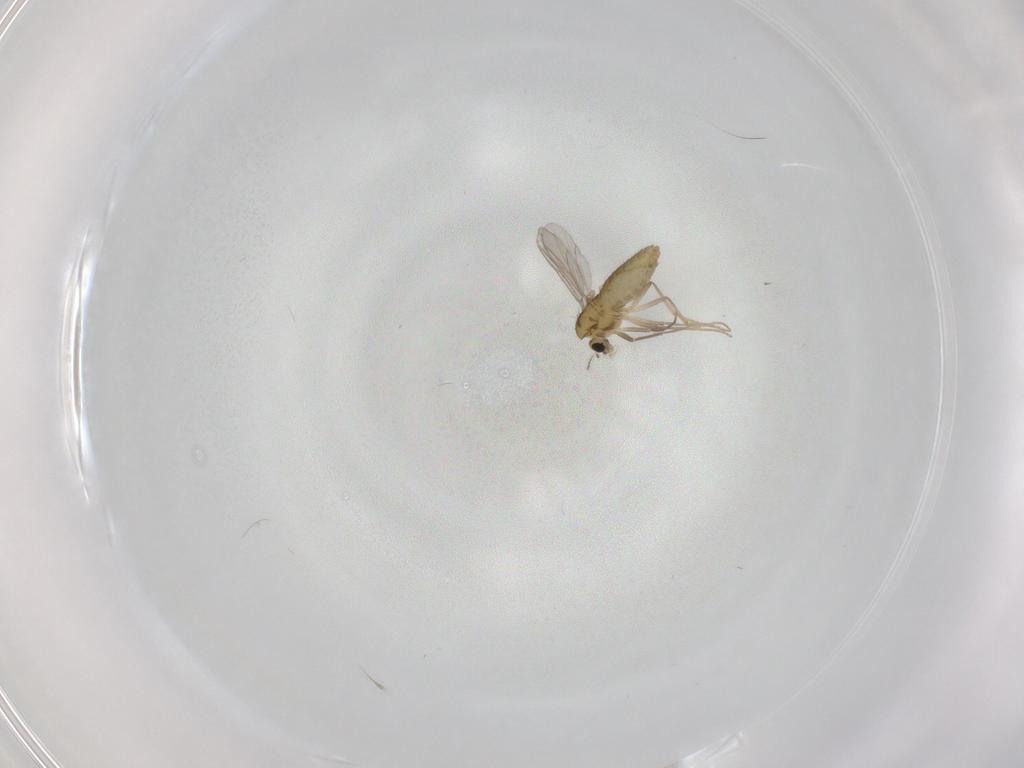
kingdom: Animalia
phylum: Arthropoda
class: Insecta
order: Diptera
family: Chironomidae
